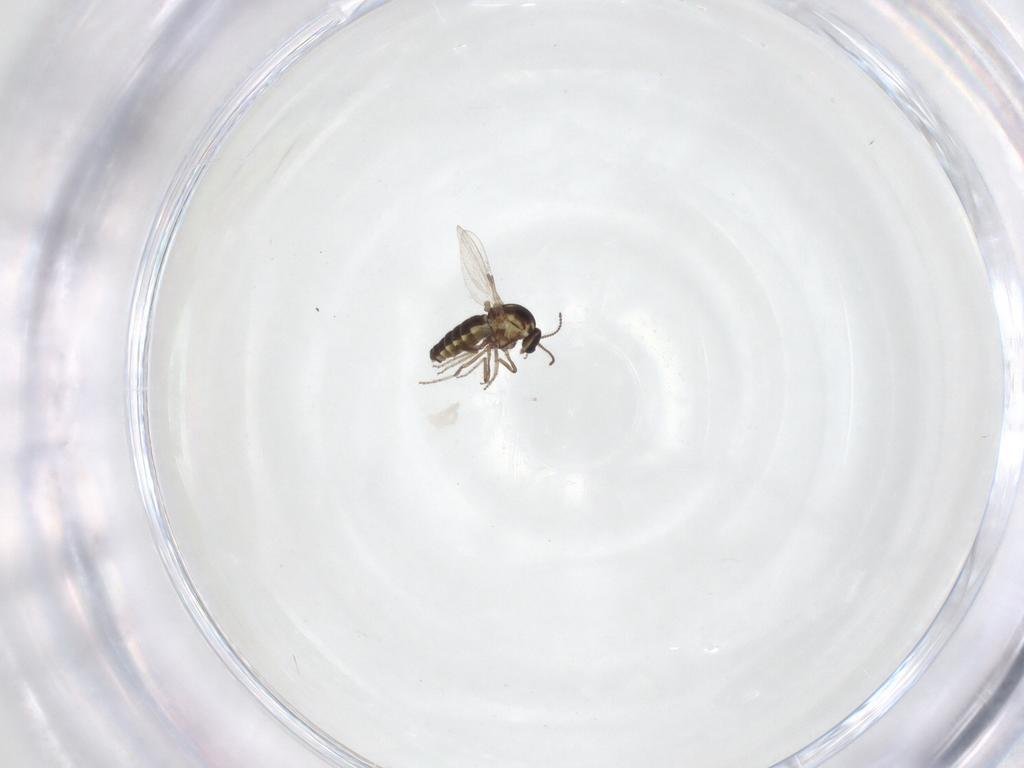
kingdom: Animalia
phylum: Arthropoda
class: Insecta
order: Diptera
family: Ceratopogonidae
